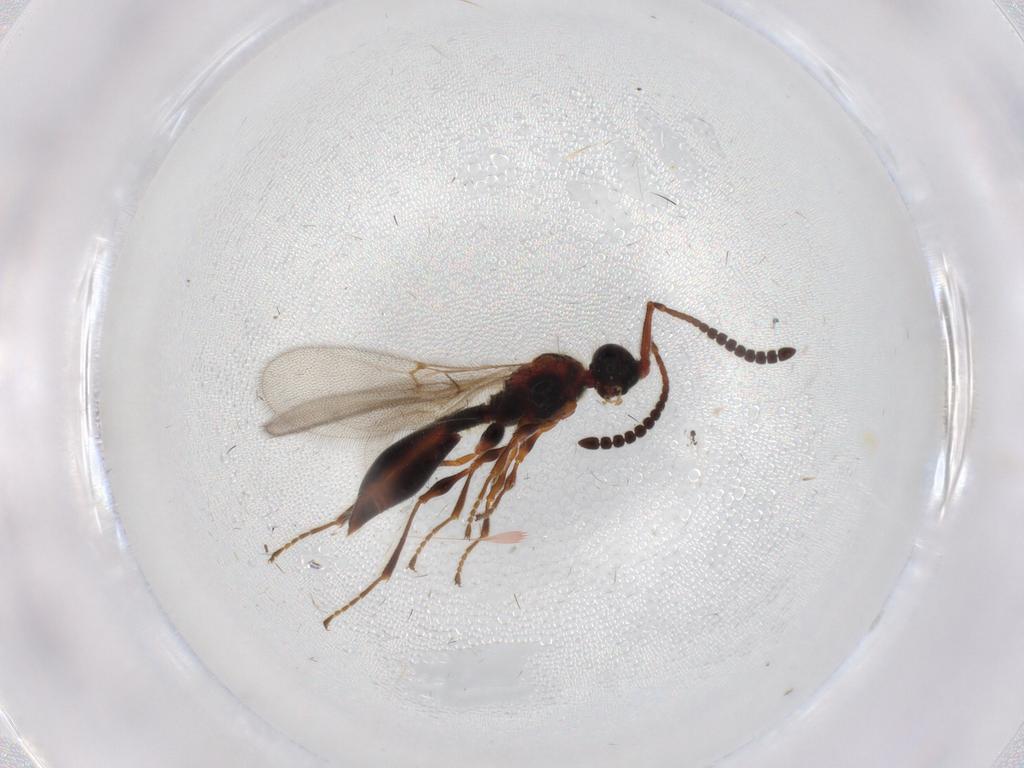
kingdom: Animalia
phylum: Arthropoda
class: Insecta
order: Hymenoptera
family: Diapriidae
